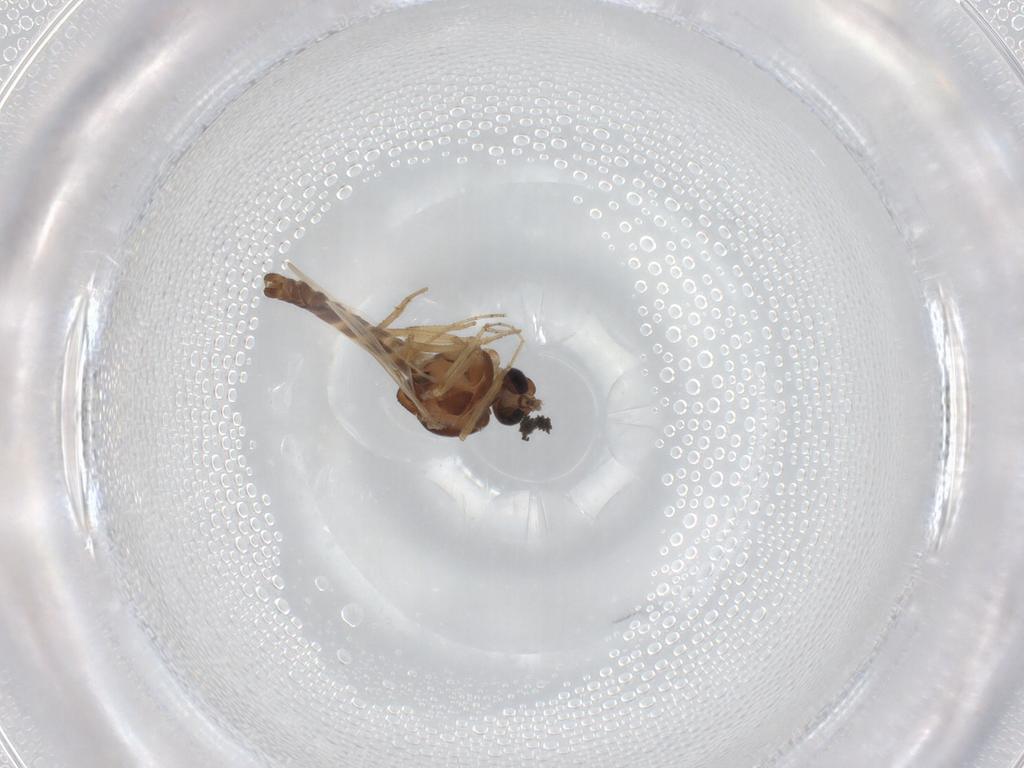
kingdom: Animalia
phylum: Arthropoda
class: Insecta
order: Diptera
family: Ceratopogonidae
